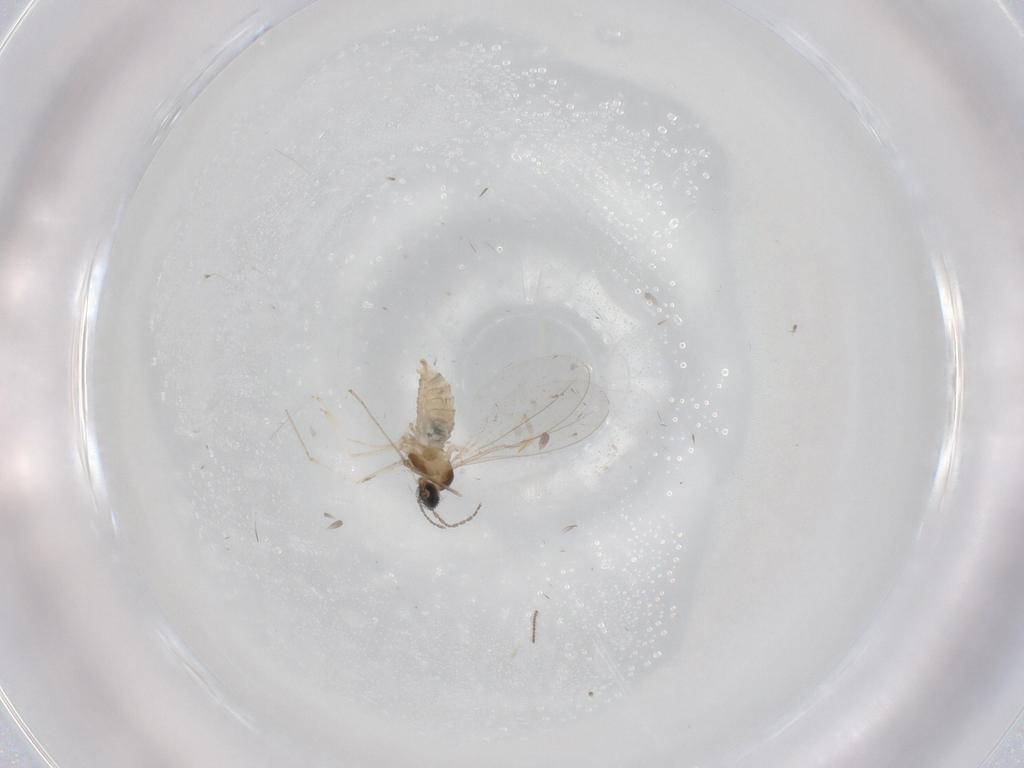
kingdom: Animalia
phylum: Arthropoda
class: Insecta
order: Diptera
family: Cecidomyiidae
